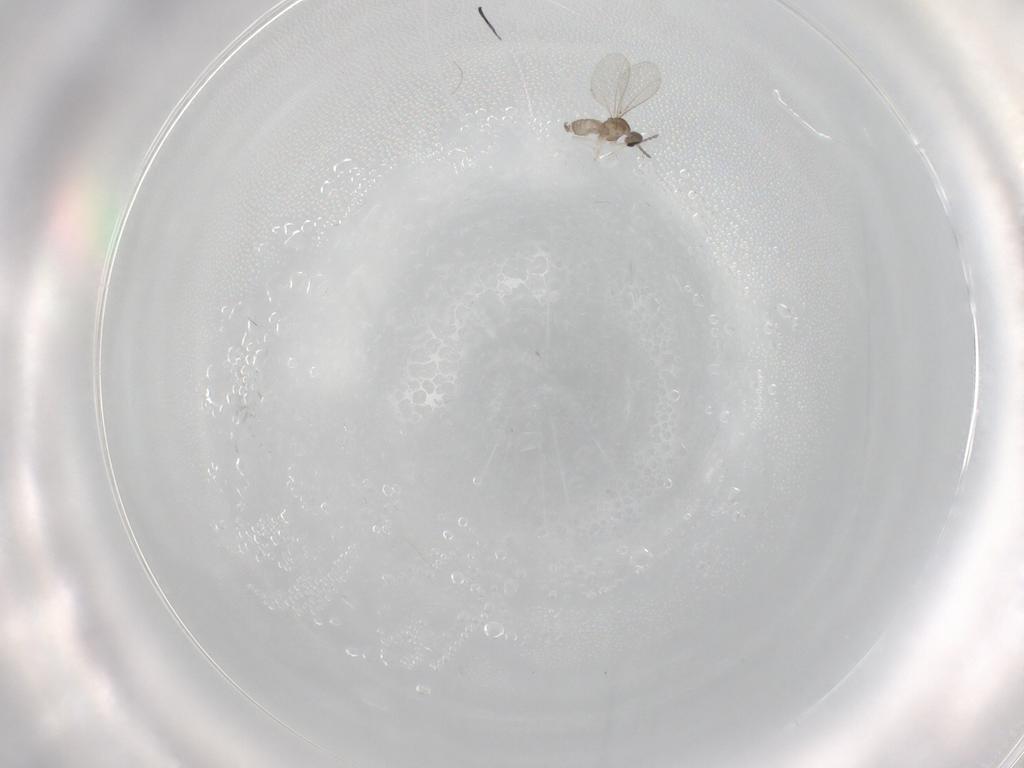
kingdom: Animalia
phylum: Arthropoda
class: Insecta
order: Diptera
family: Cecidomyiidae
